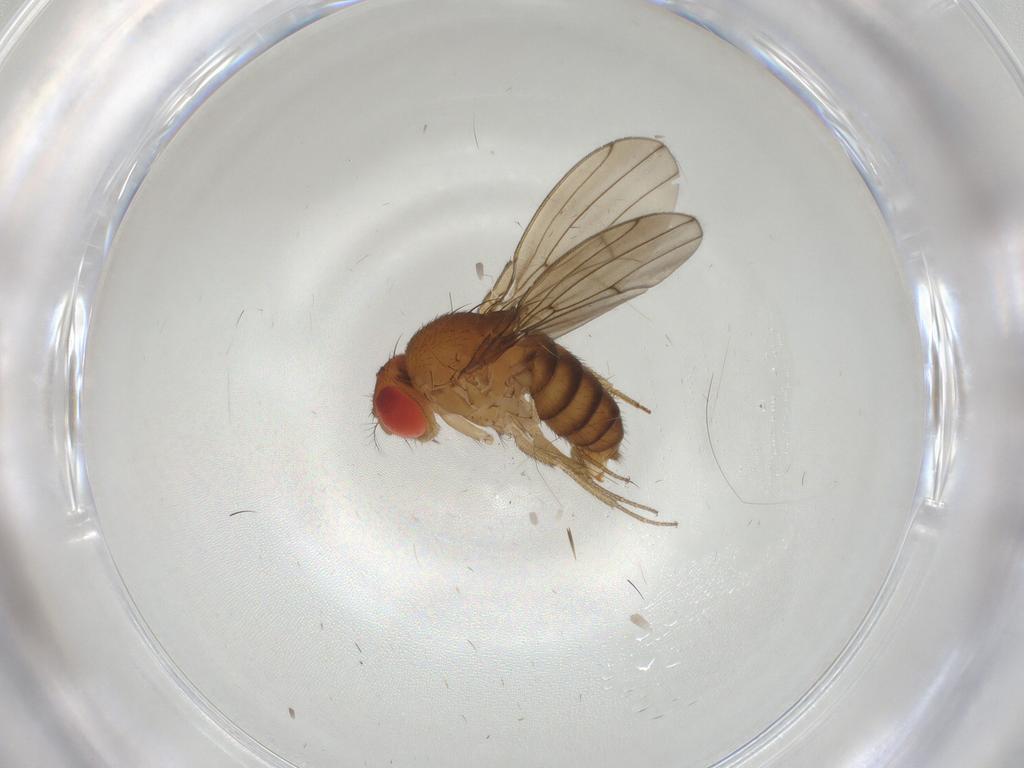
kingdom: Animalia
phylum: Arthropoda
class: Insecta
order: Diptera
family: Drosophilidae
